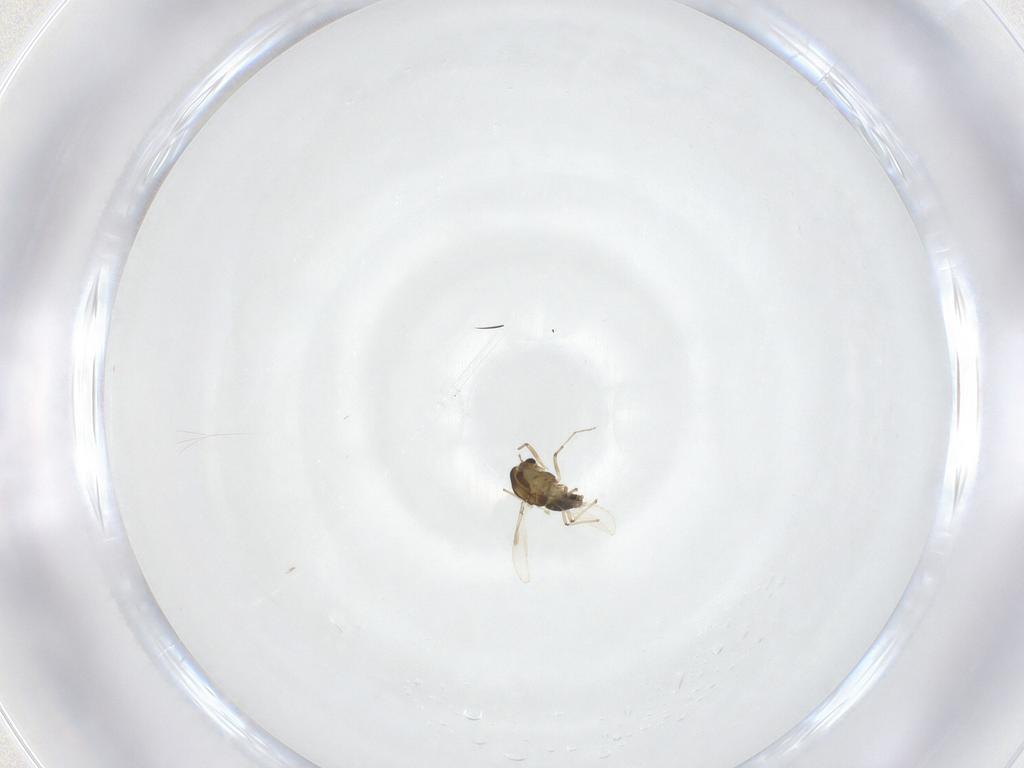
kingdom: Animalia
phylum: Arthropoda
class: Insecta
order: Diptera
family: Chironomidae
